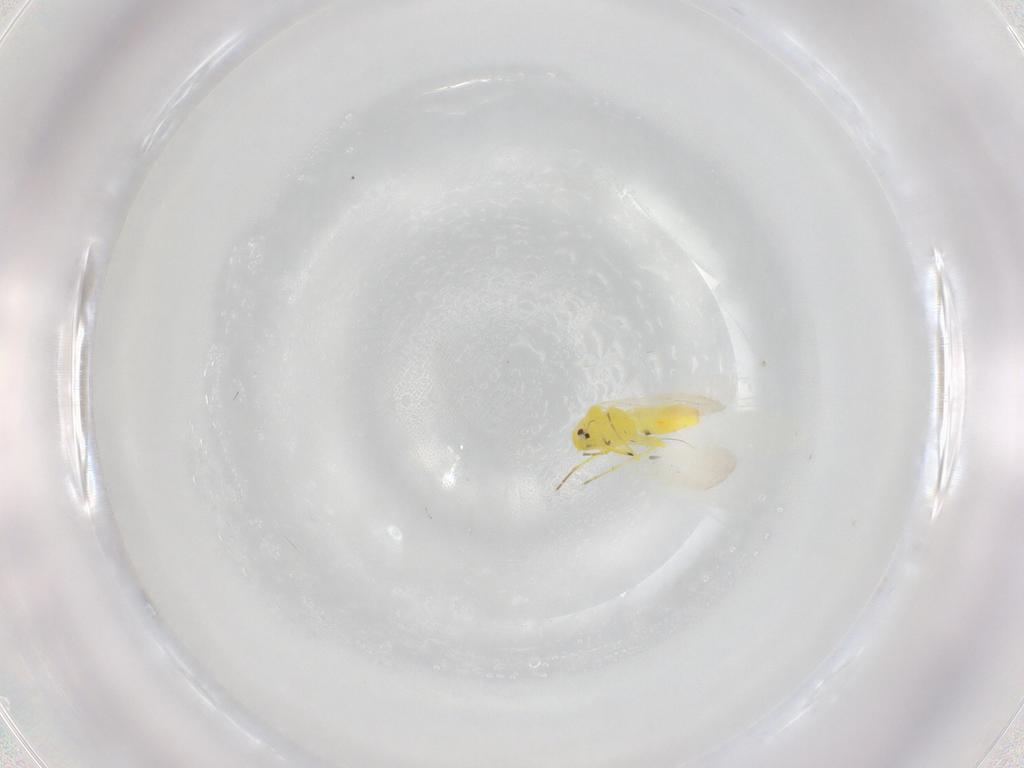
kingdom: Animalia
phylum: Arthropoda
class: Insecta
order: Hemiptera
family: Aleyrodidae
